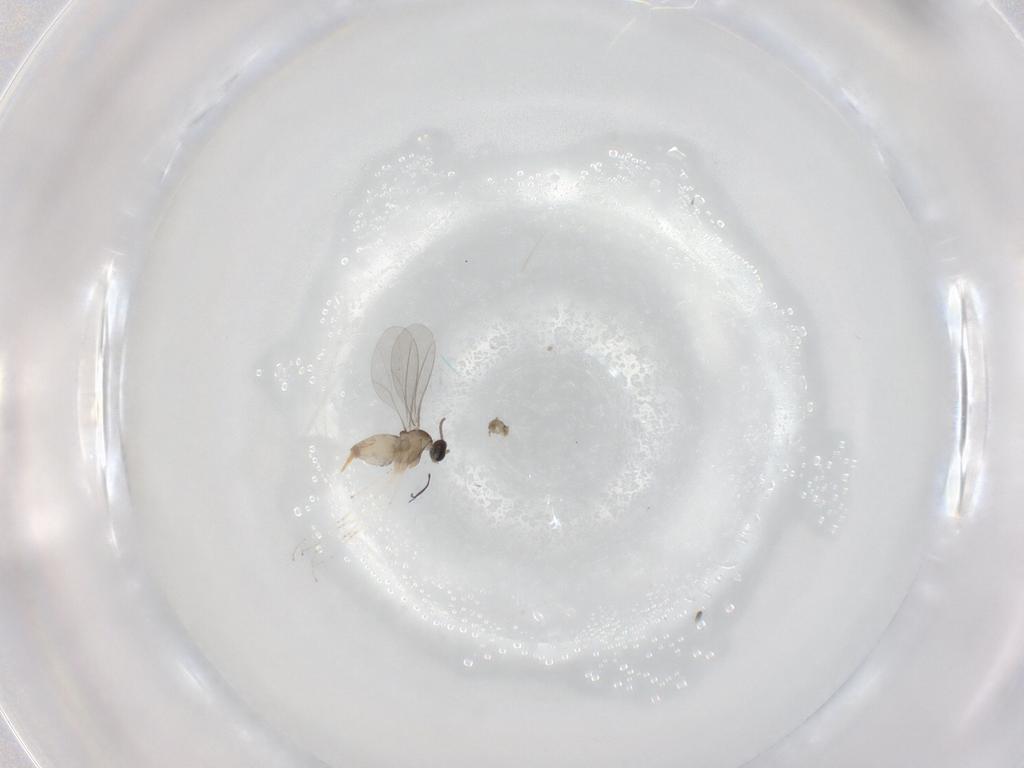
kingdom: Animalia
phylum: Arthropoda
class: Insecta
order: Diptera
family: Cecidomyiidae
